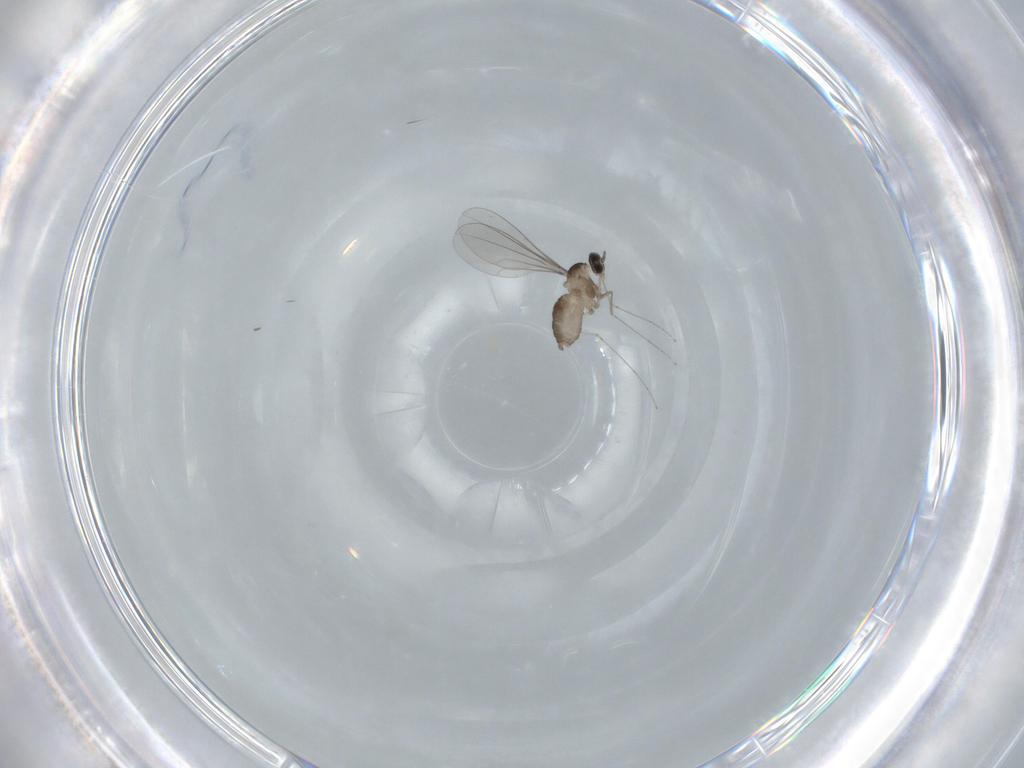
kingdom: Animalia
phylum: Arthropoda
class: Insecta
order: Diptera
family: Cecidomyiidae
